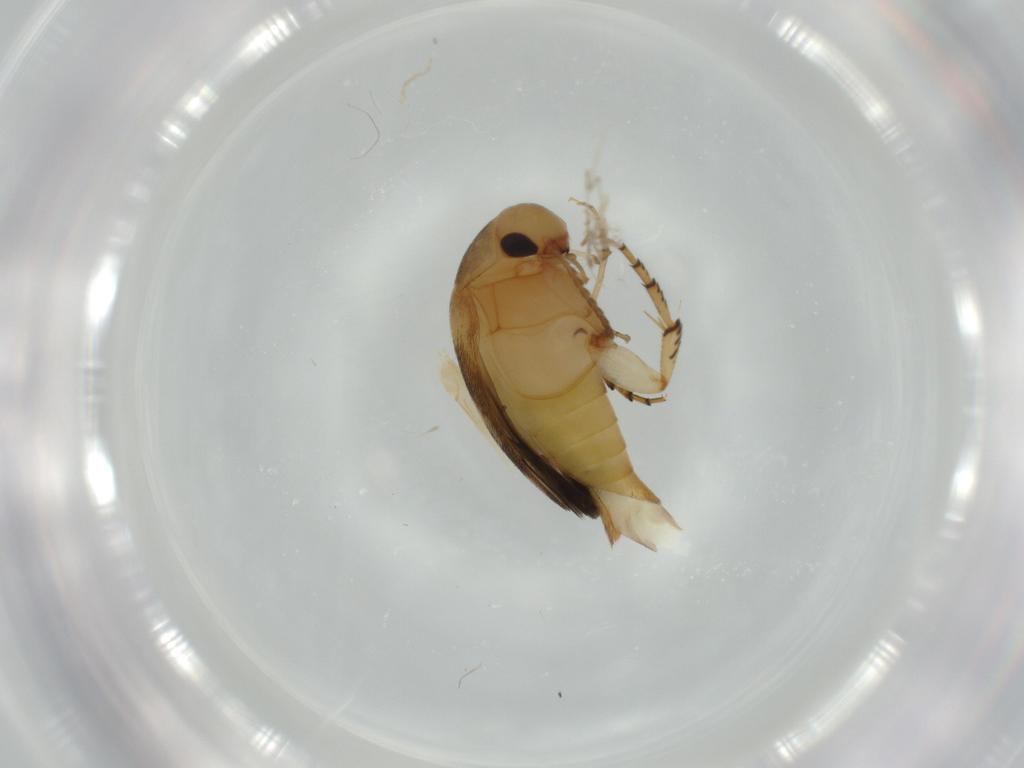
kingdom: Animalia
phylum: Arthropoda
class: Insecta
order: Coleoptera
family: Mordellidae
